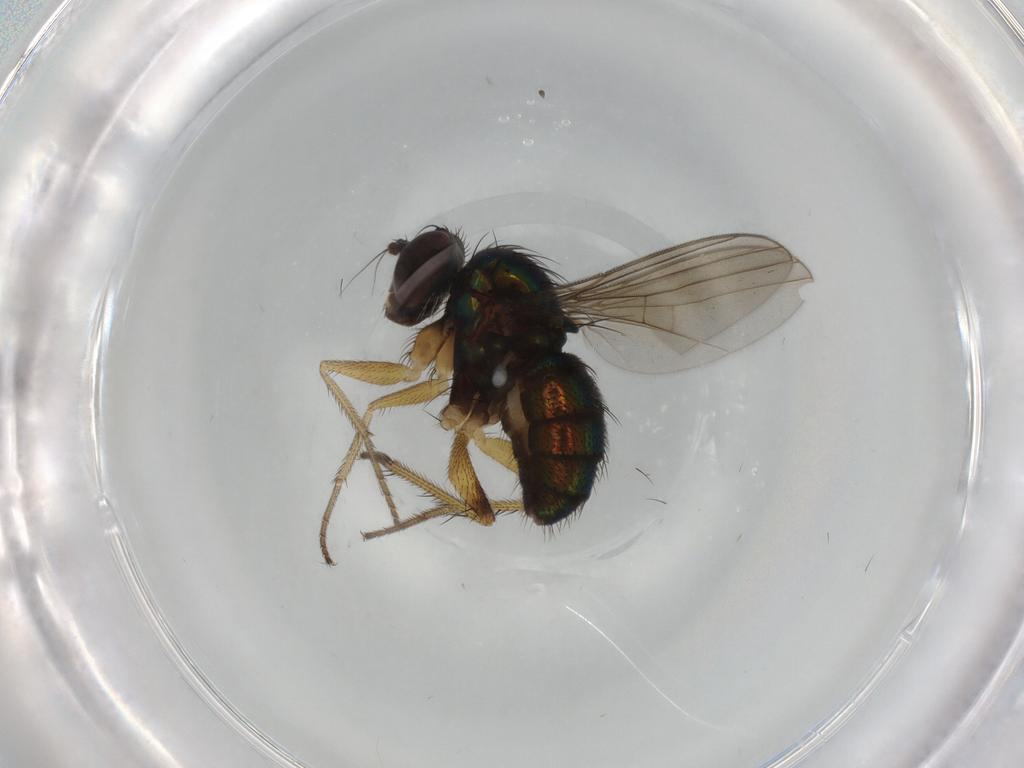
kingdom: Animalia
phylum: Arthropoda
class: Insecta
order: Diptera
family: Dolichopodidae
